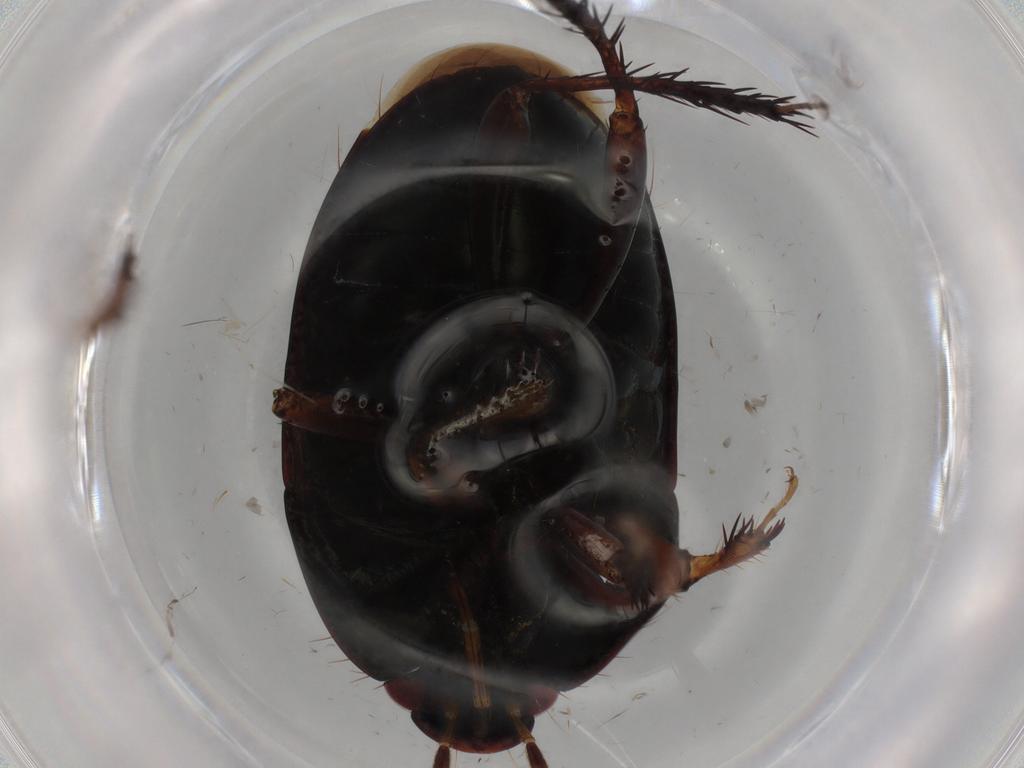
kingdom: Animalia
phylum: Arthropoda
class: Insecta
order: Hemiptera
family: Cydnidae
